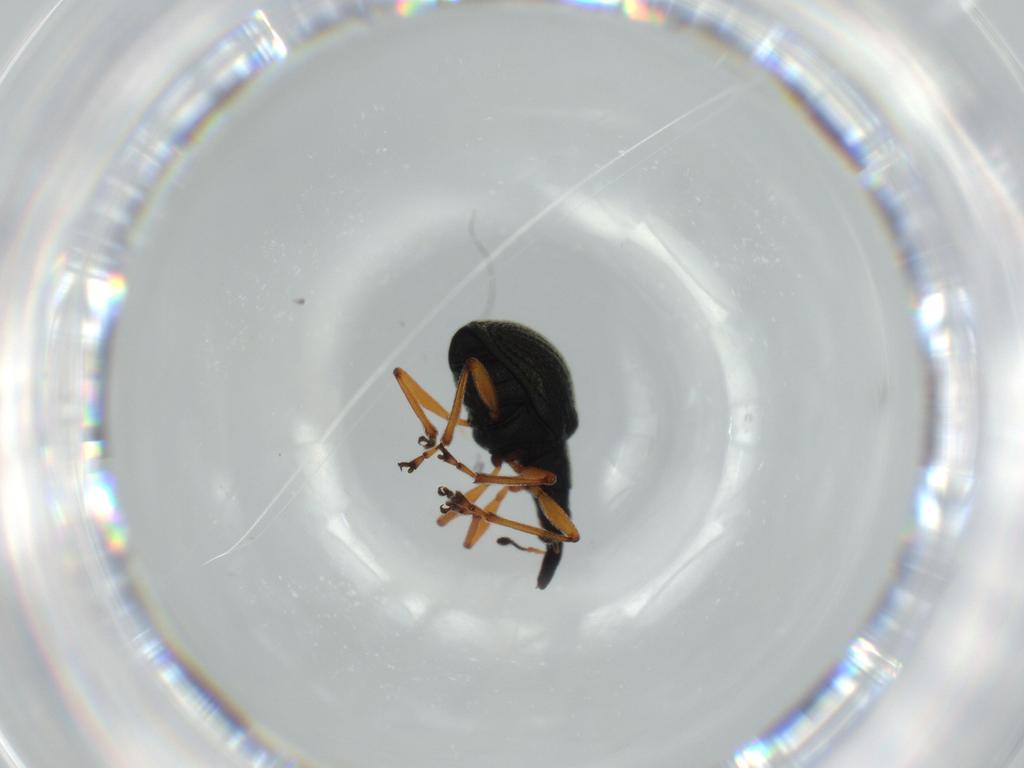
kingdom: Animalia
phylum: Arthropoda
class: Insecta
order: Coleoptera
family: Brentidae
